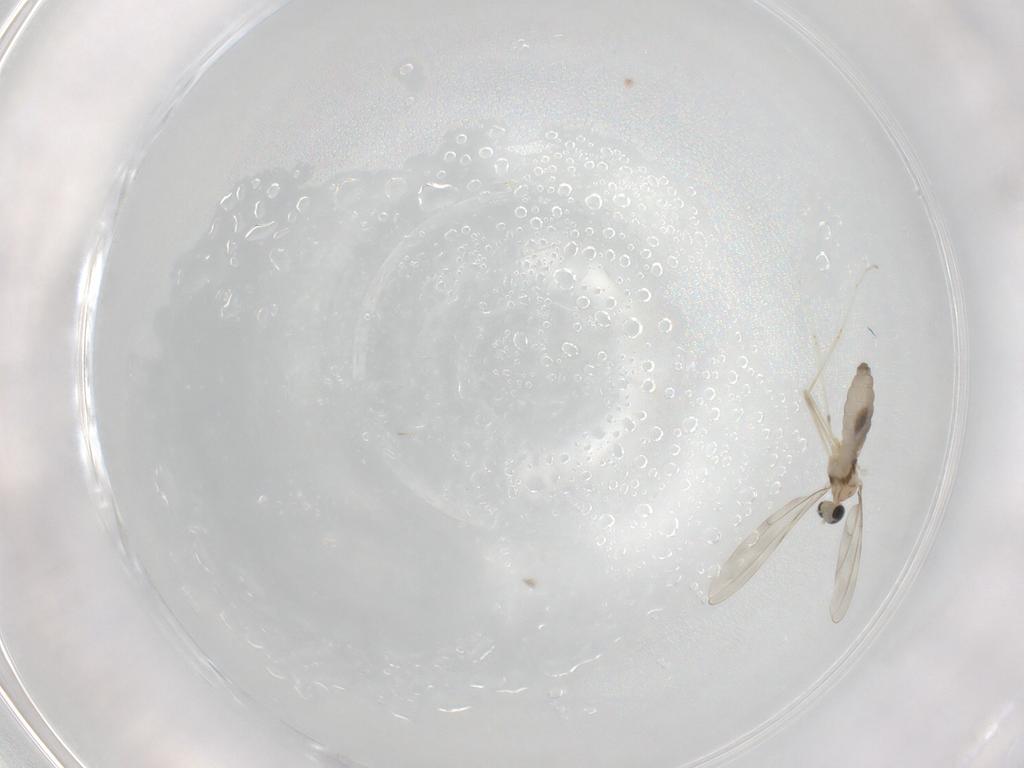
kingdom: Animalia
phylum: Arthropoda
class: Insecta
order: Diptera
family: Cecidomyiidae
